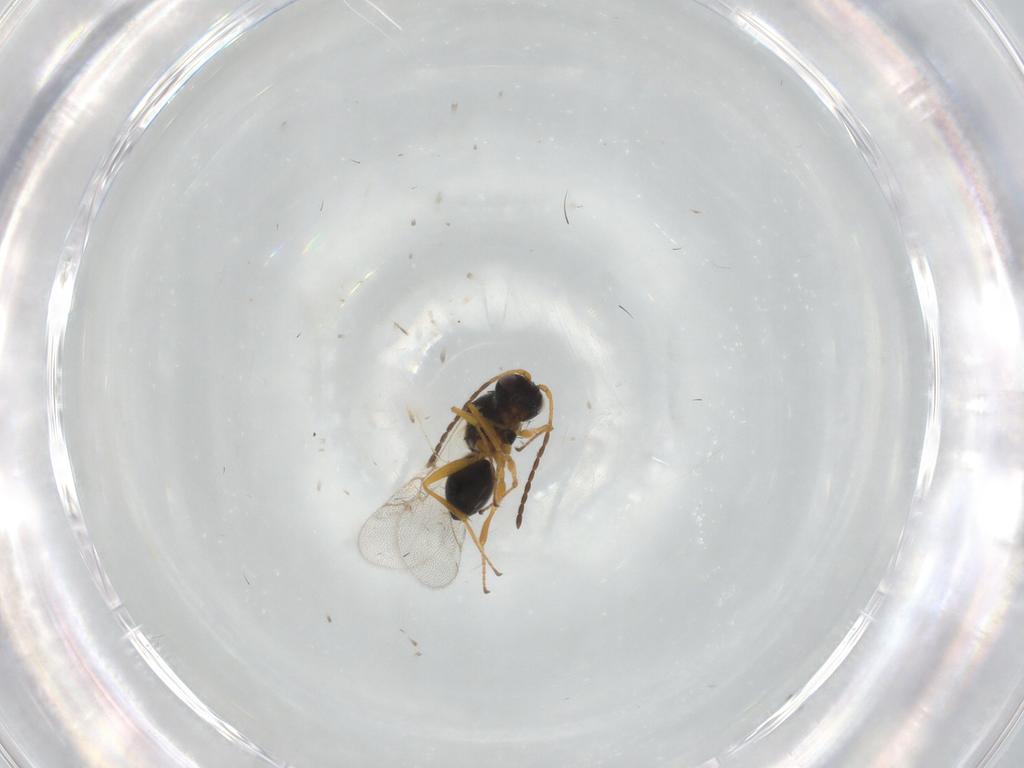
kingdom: Animalia
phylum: Arthropoda
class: Insecta
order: Hymenoptera
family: Figitidae
